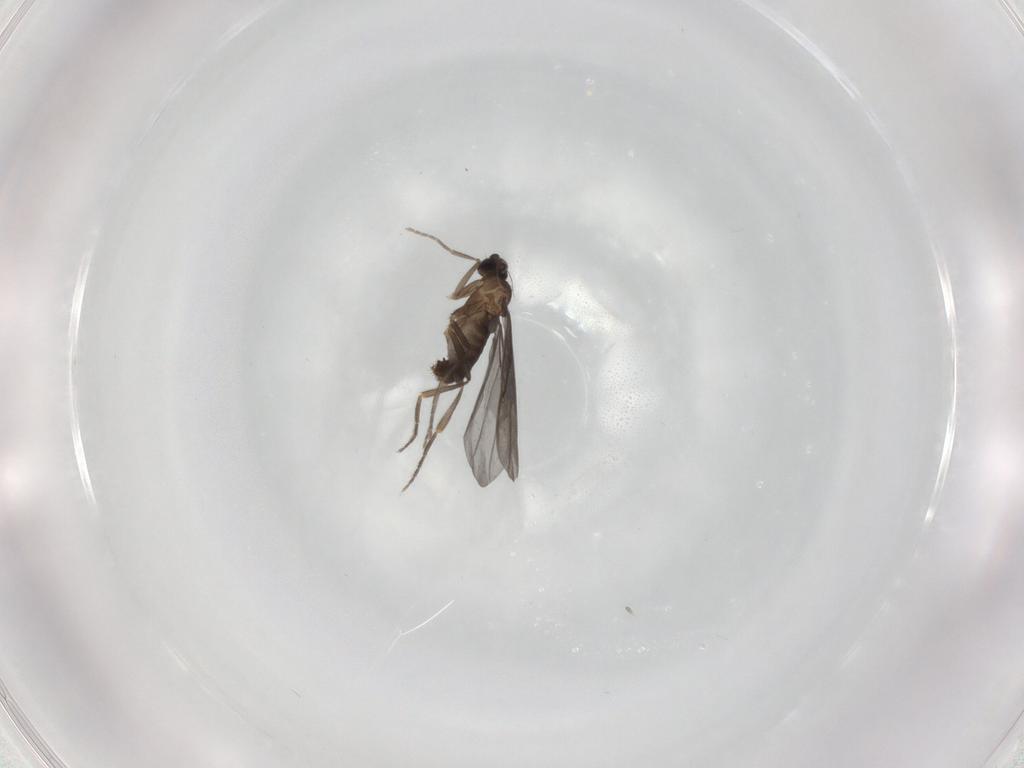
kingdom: Animalia
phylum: Arthropoda
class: Insecta
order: Diptera
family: Phoridae
